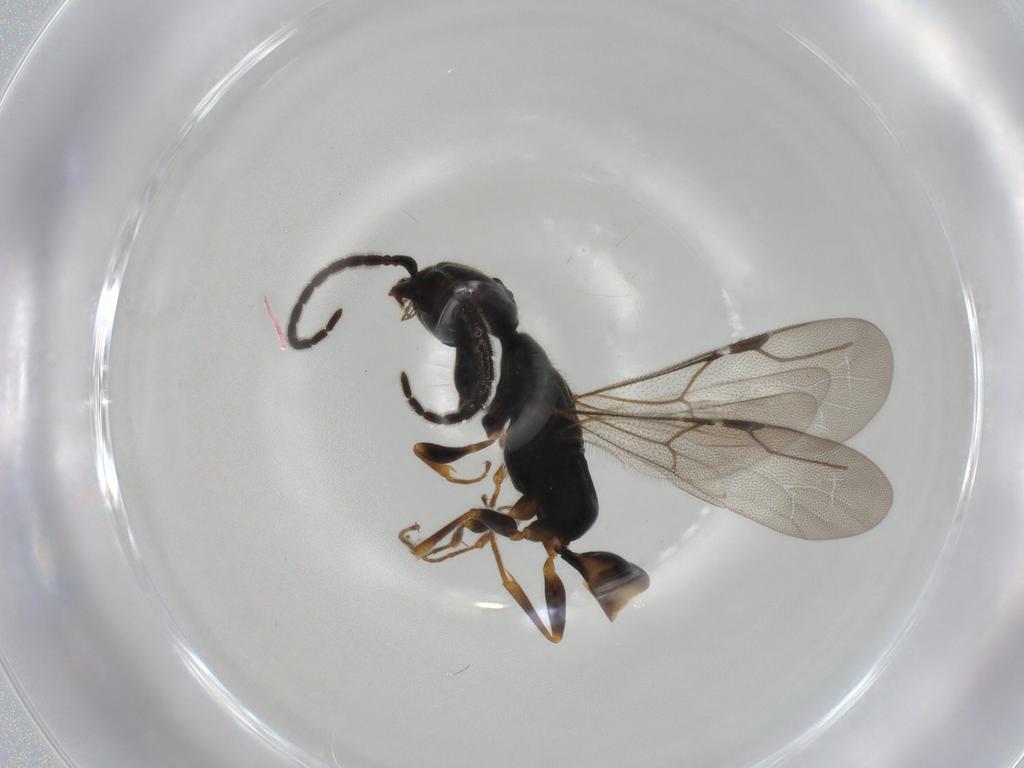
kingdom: Animalia
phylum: Arthropoda
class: Insecta
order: Hymenoptera
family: Bethylidae
